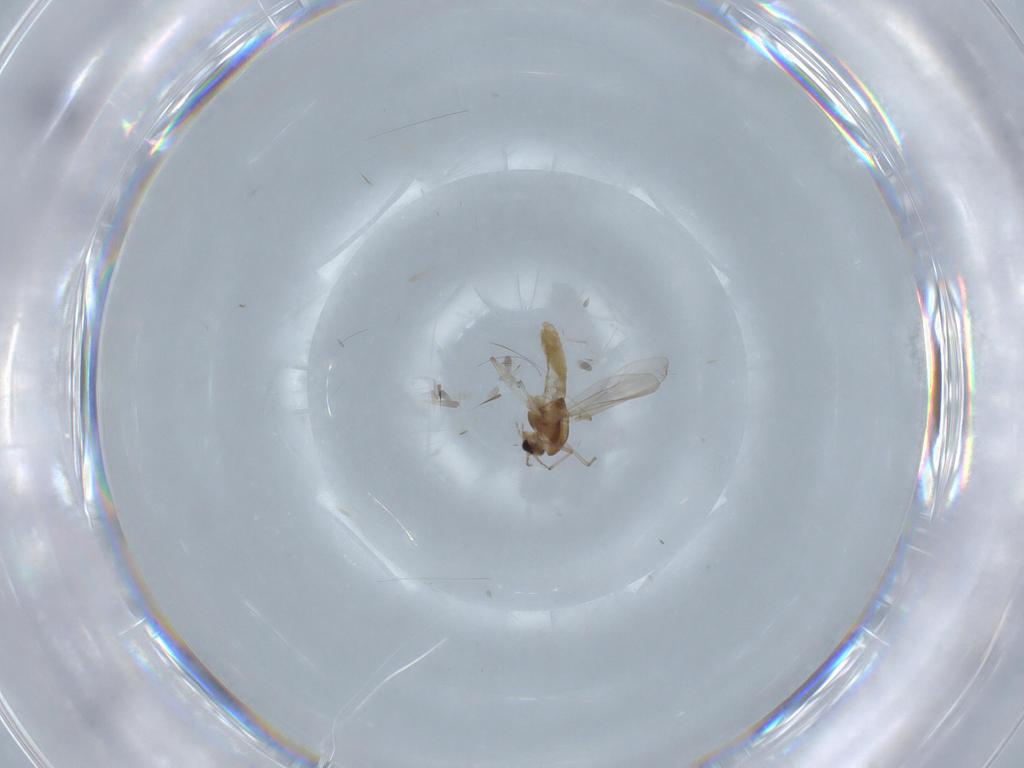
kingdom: Animalia
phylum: Arthropoda
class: Insecta
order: Diptera
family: Chironomidae
